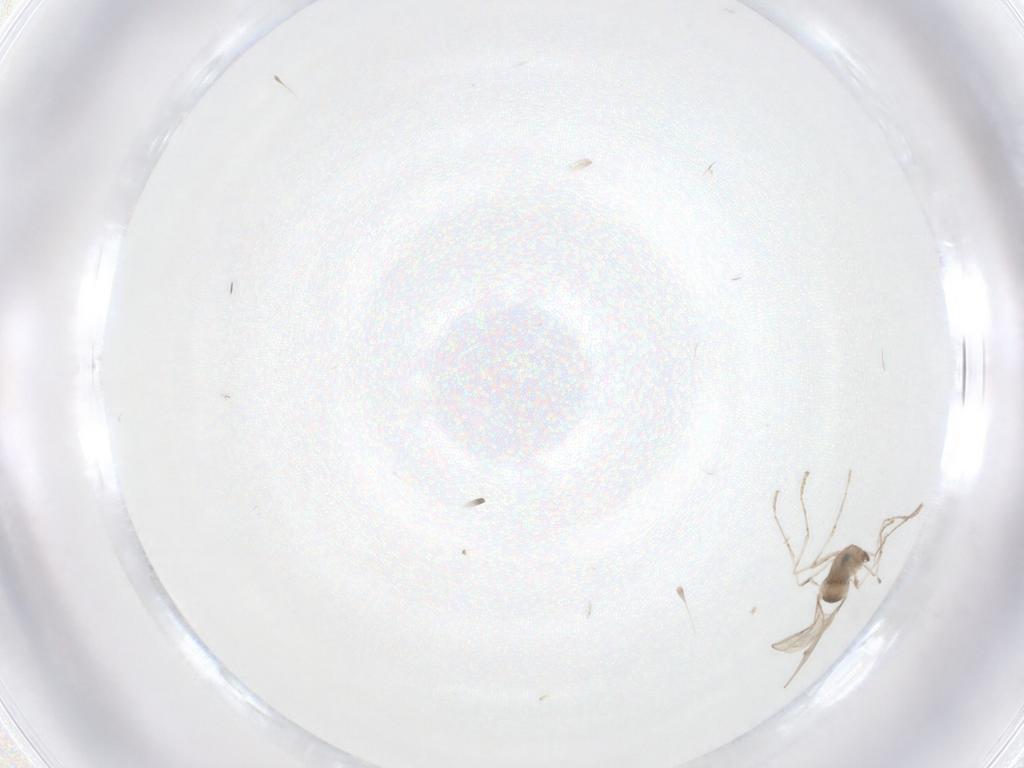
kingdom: Animalia
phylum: Arthropoda
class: Insecta
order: Diptera
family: Cecidomyiidae
